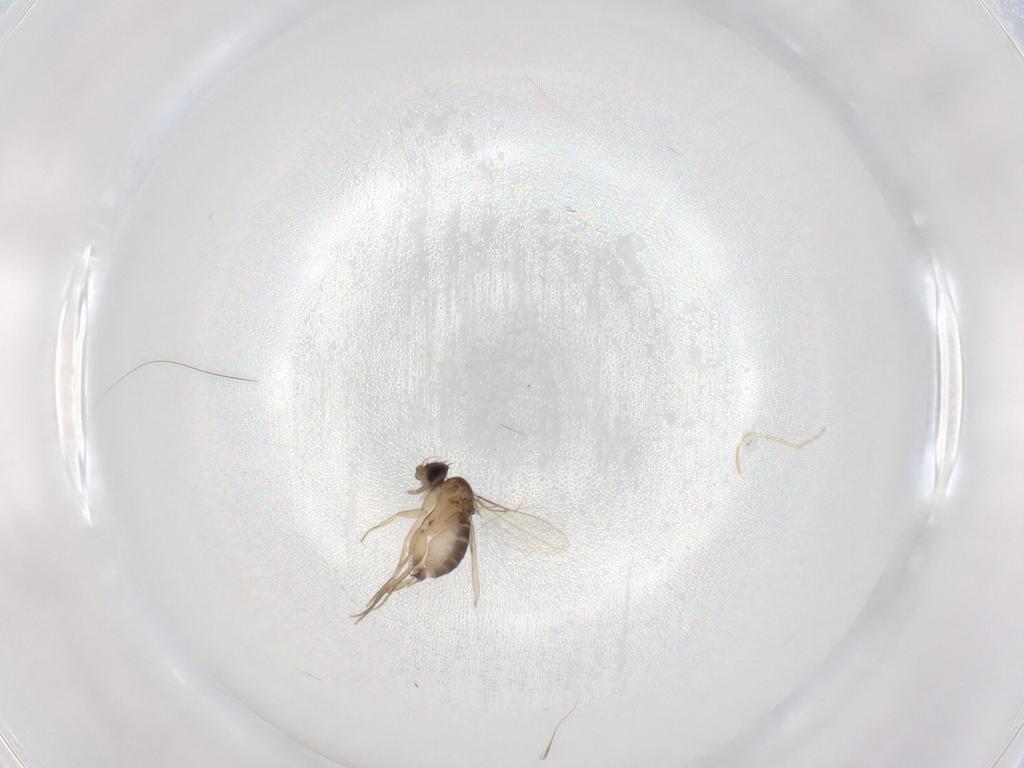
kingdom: Animalia
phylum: Arthropoda
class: Insecta
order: Diptera
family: Phoridae
